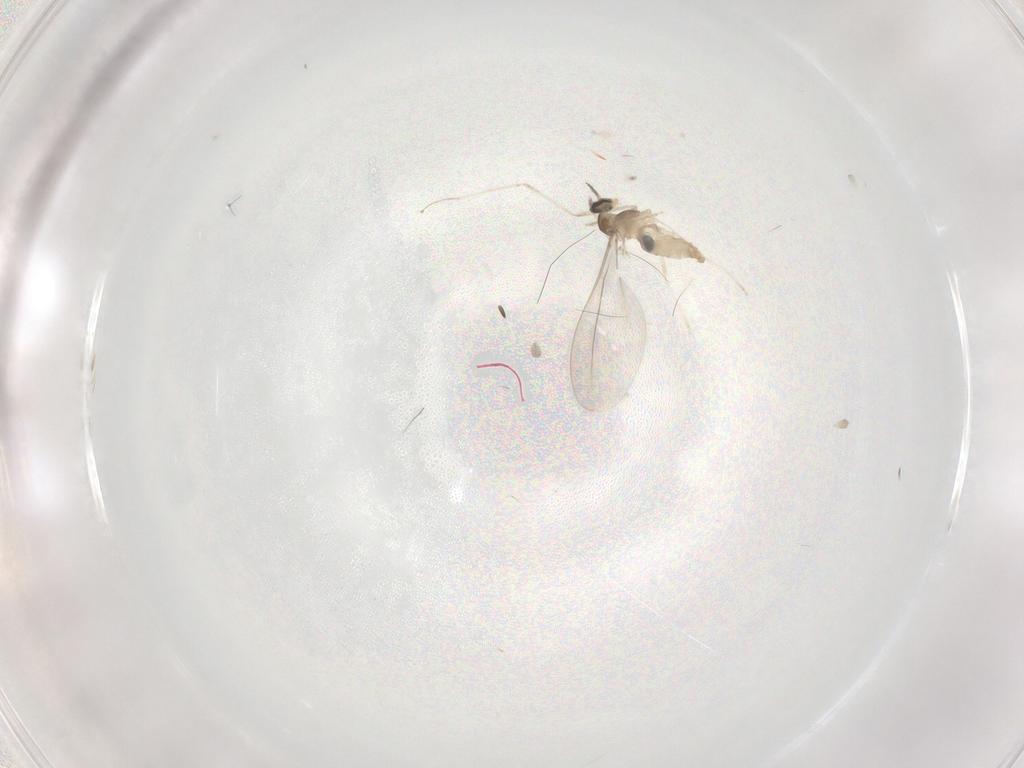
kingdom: Animalia
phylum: Arthropoda
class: Insecta
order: Diptera
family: Cecidomyiidae
